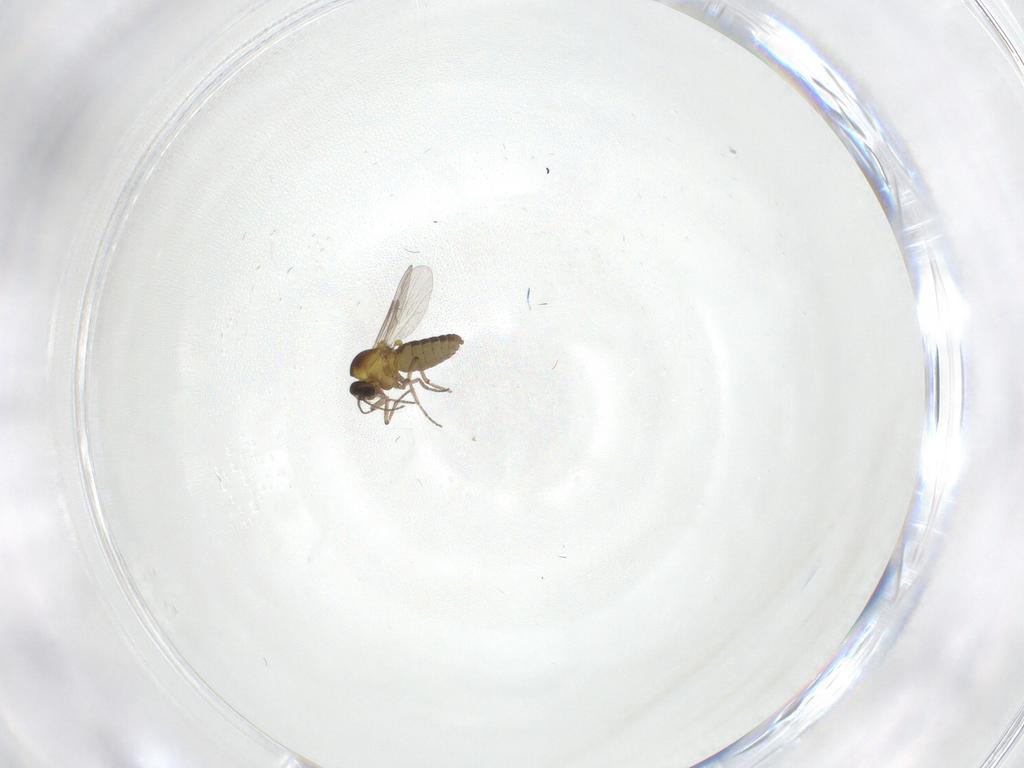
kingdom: Animalia
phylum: Arthropoda
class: Insecta
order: Diptera
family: Ceratopogonidae
